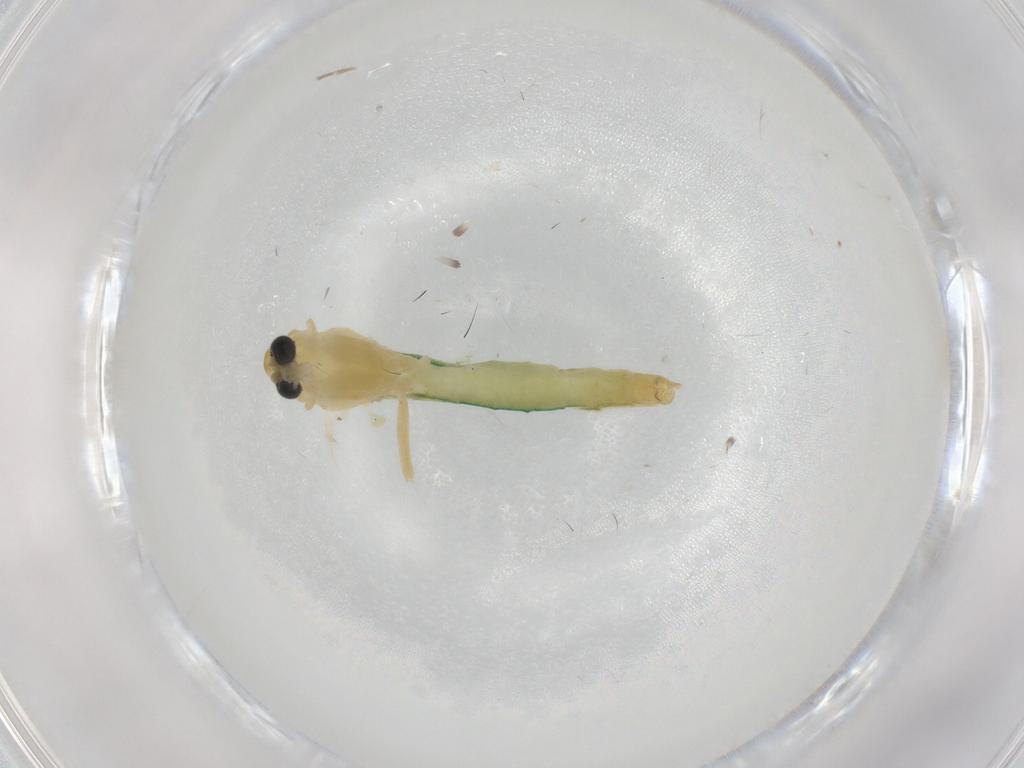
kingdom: Animalia
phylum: Arthropoda
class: Insecta
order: Diptera
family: Chironomidae
